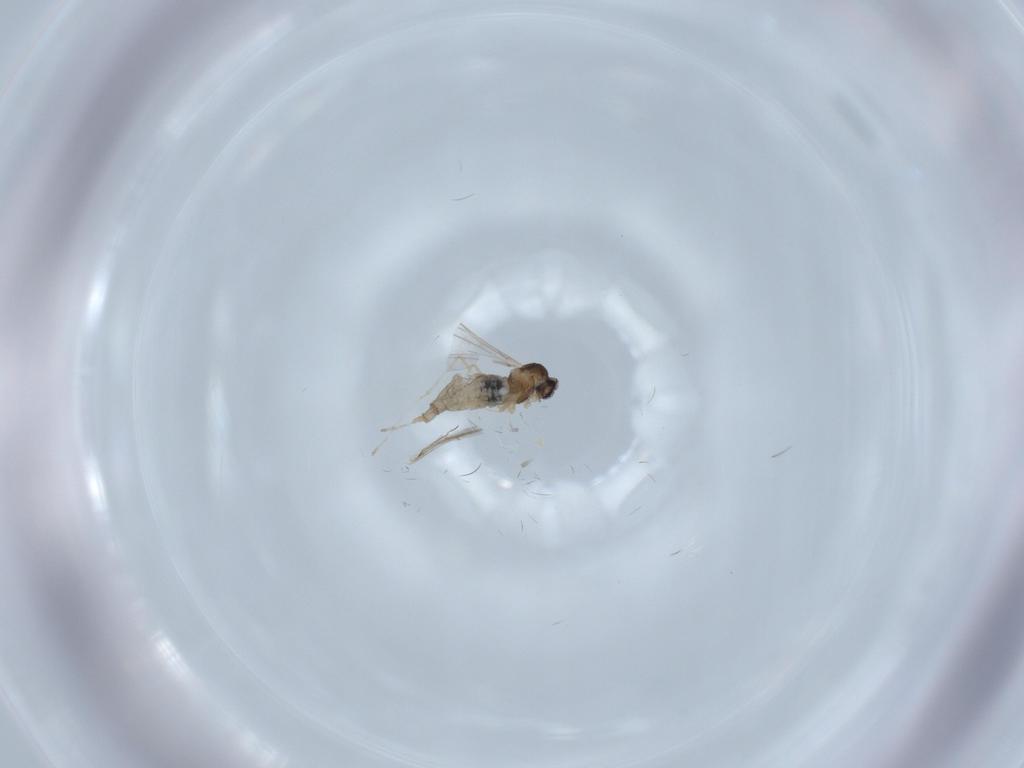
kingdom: Animalia
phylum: Arthropoda
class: Insecta
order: Diptera
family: Cecidomyiidae
